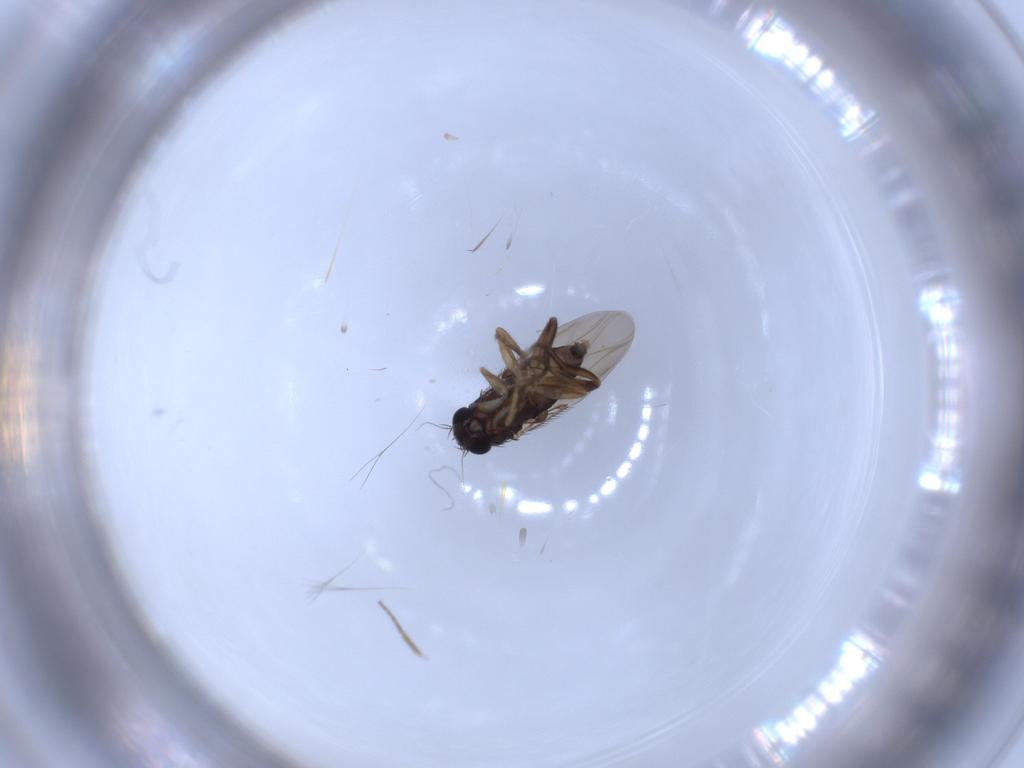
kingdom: Animalia
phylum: Arthropoda
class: Insecta
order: Diptera
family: Phoridae
